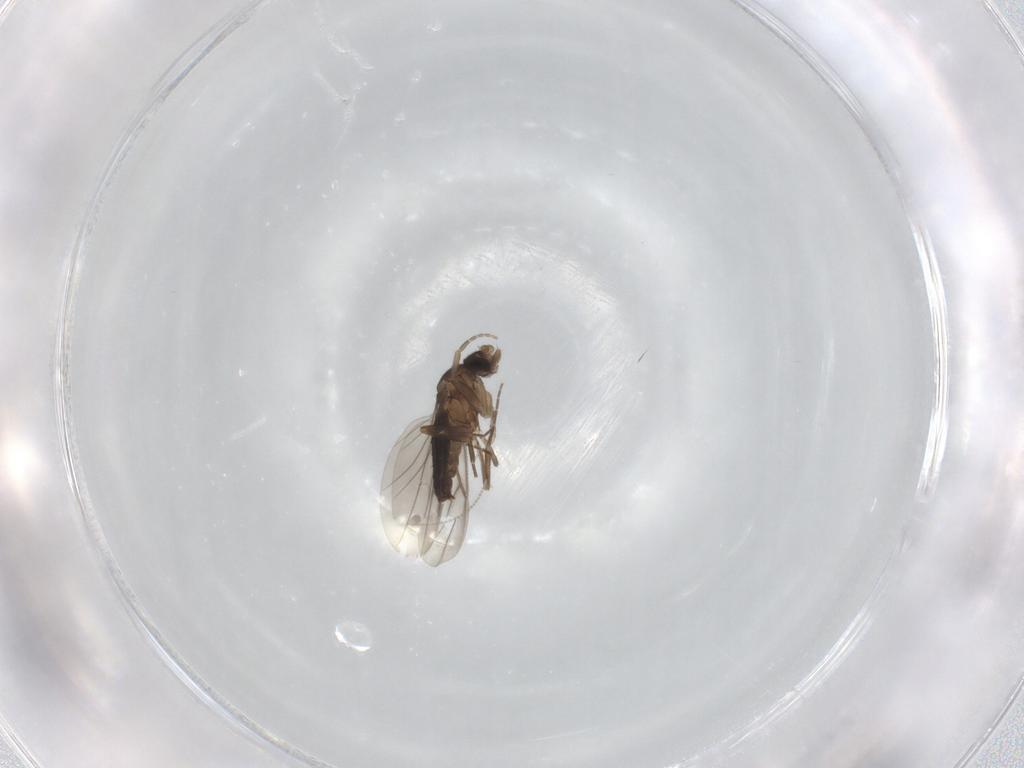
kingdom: Animalia
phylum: Arthropoda
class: Insecta
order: Diptera
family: Phoridae
